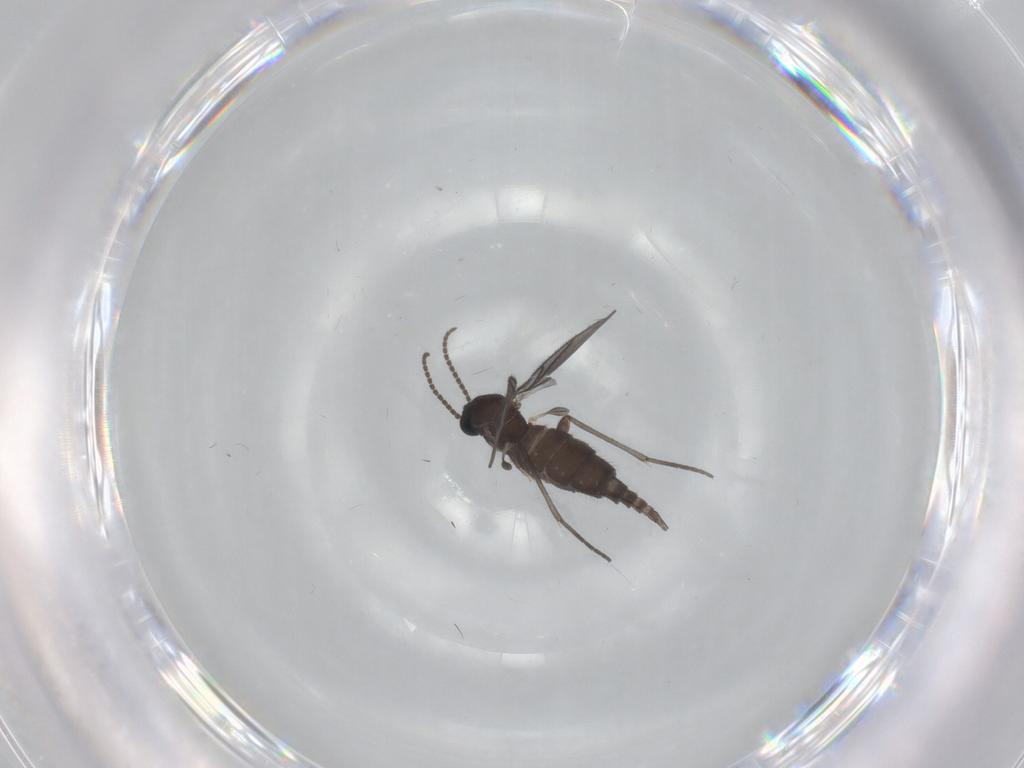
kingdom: Animalia
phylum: Arthropoda
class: Insecta
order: Diptera
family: Sciaridae
